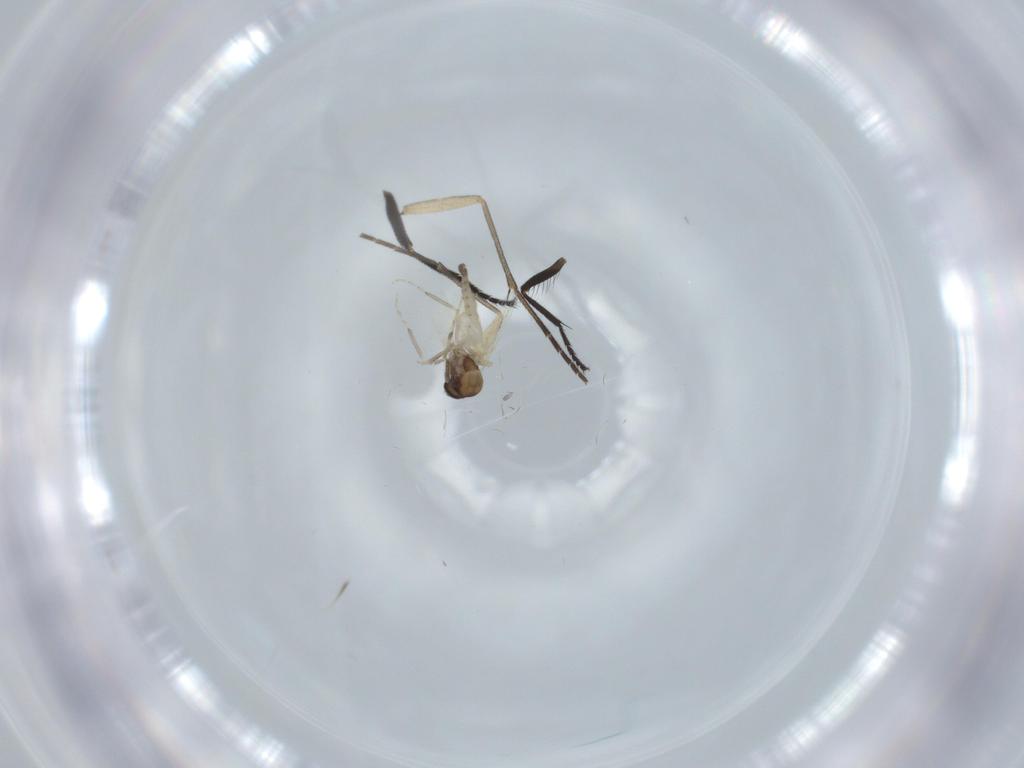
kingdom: Animalia
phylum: Arthropoda
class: Insecta
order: Diptera
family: Milichiidae
